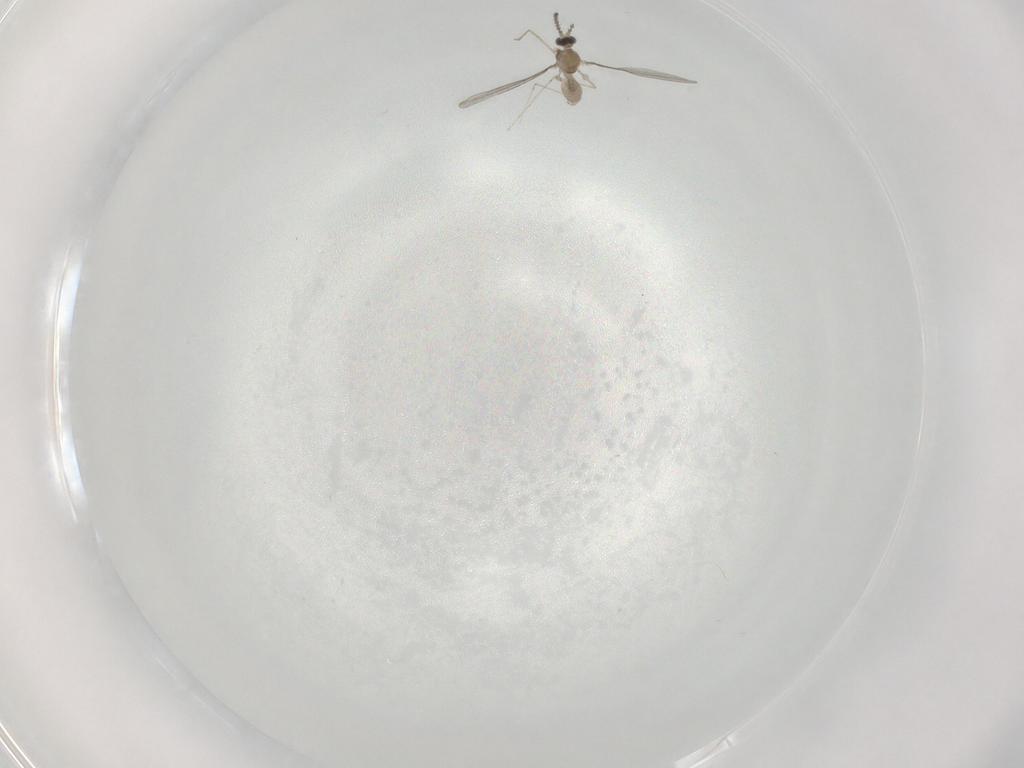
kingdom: Animalia
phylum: Arthropoda
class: Insecta
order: Diptera
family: Cecidomyiidae
